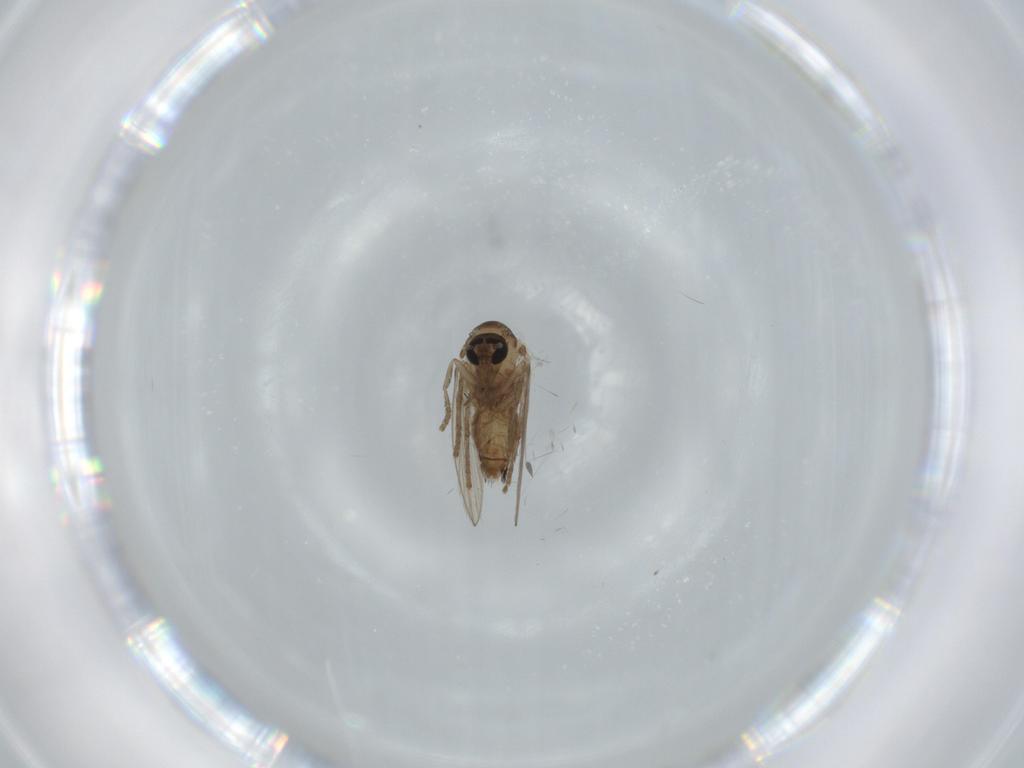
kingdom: Animalia
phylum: Arthropoda
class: Insecta
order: Diptera
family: Psychodidae
